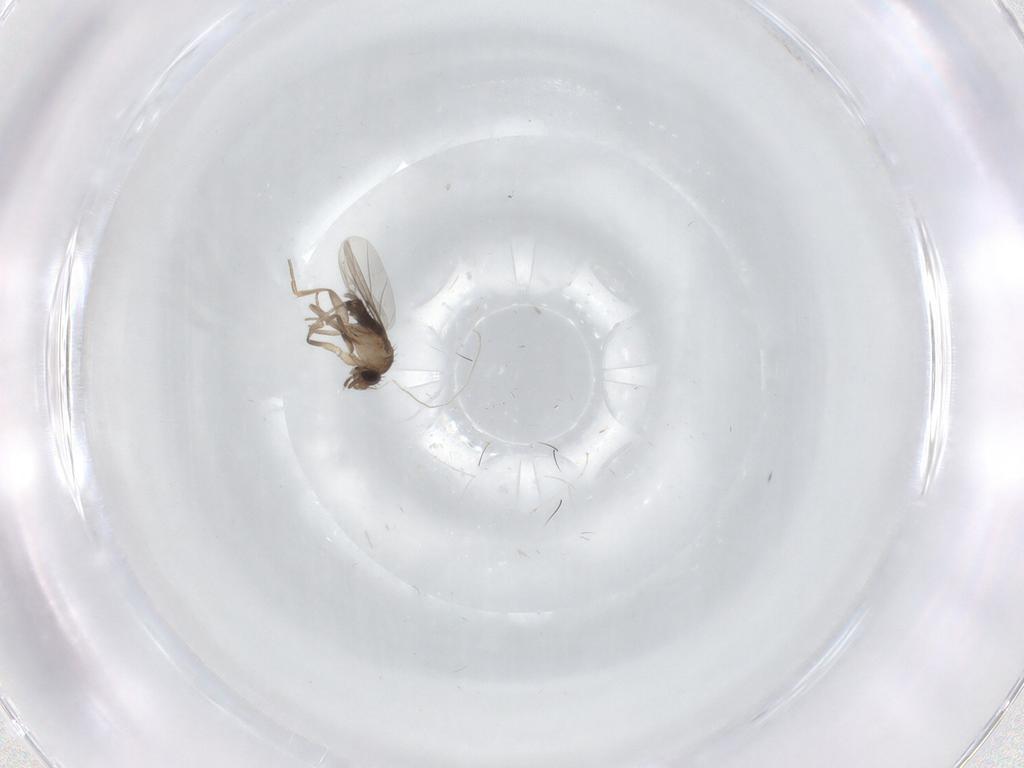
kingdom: Animalia
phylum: Arthropoda
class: Insecta
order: Diptera
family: Phoridae
